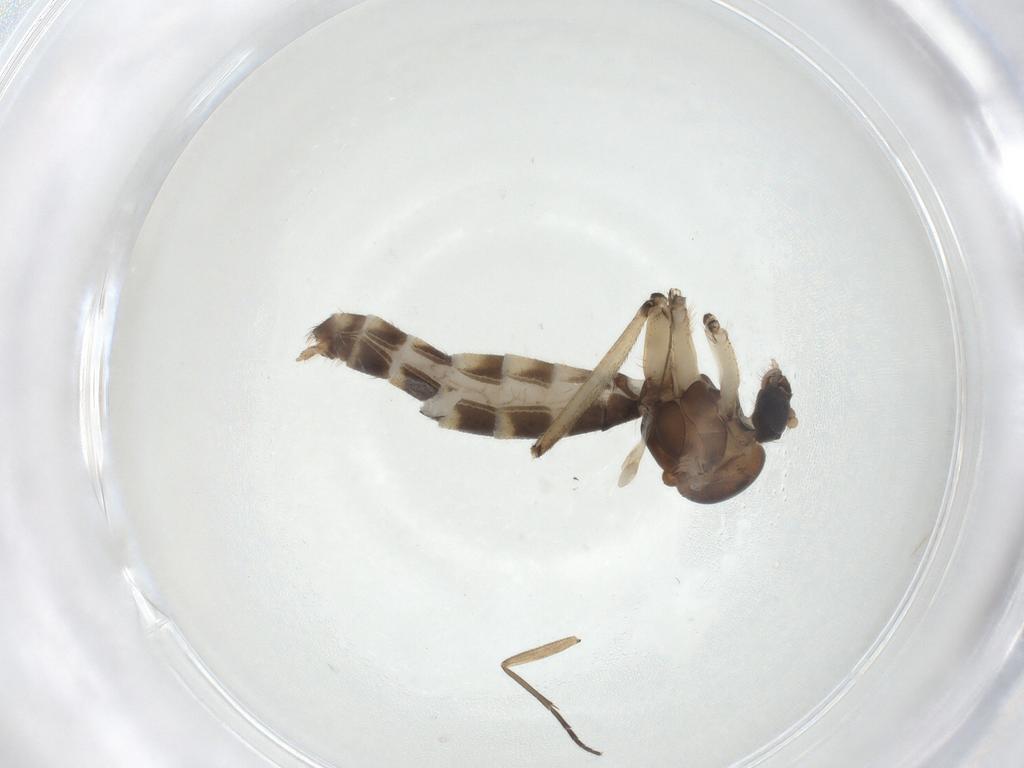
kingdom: Animalia
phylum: Arthropoda
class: Insecta
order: Diptera
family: Mycetophilidae
